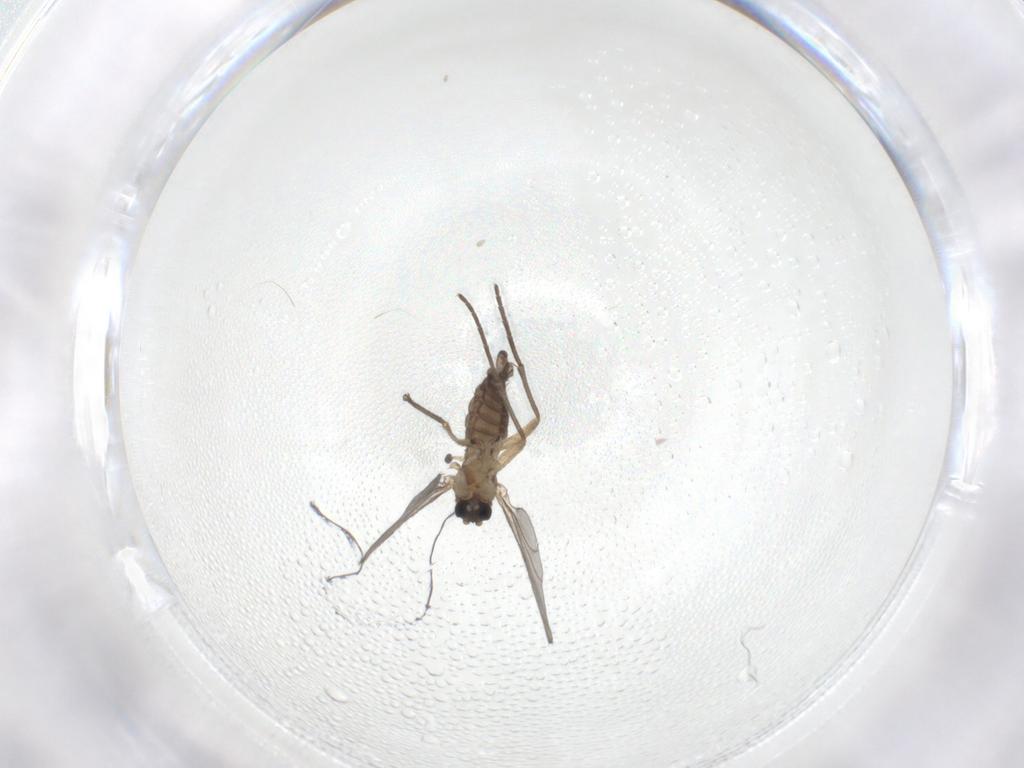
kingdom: Animalia
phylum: Arthropoda
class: Insecta
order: Diptera
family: Sciaridae
